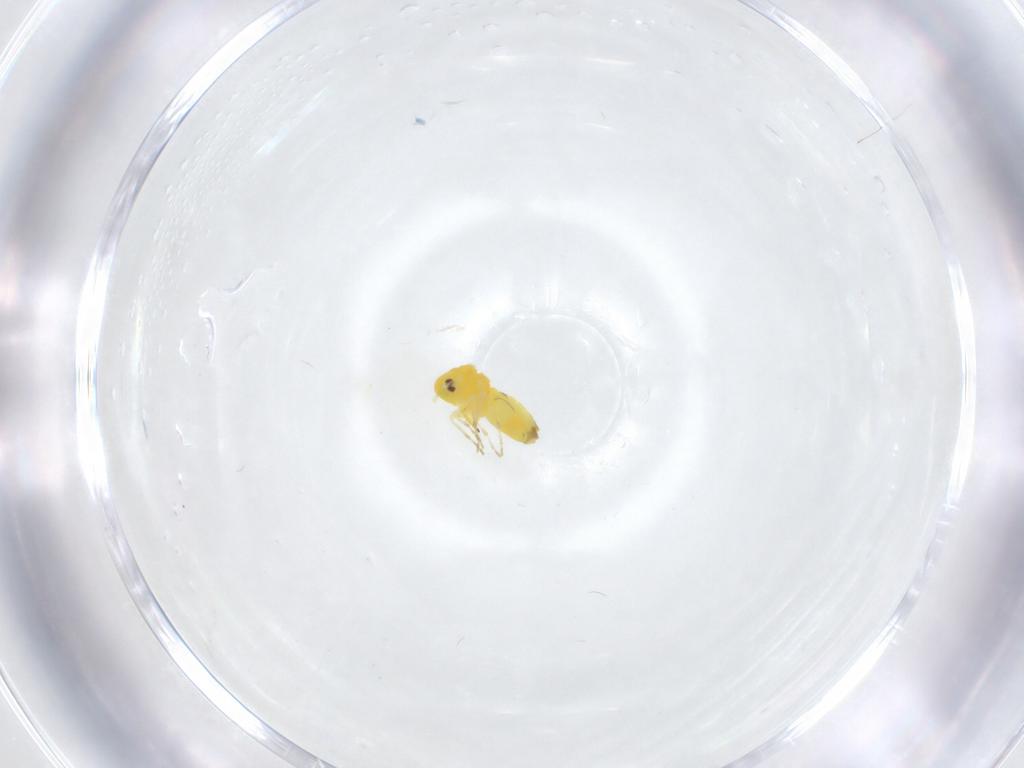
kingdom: Animalia
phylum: Arthropoda
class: Insecta
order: Hemiptera
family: Aleyrodidae
